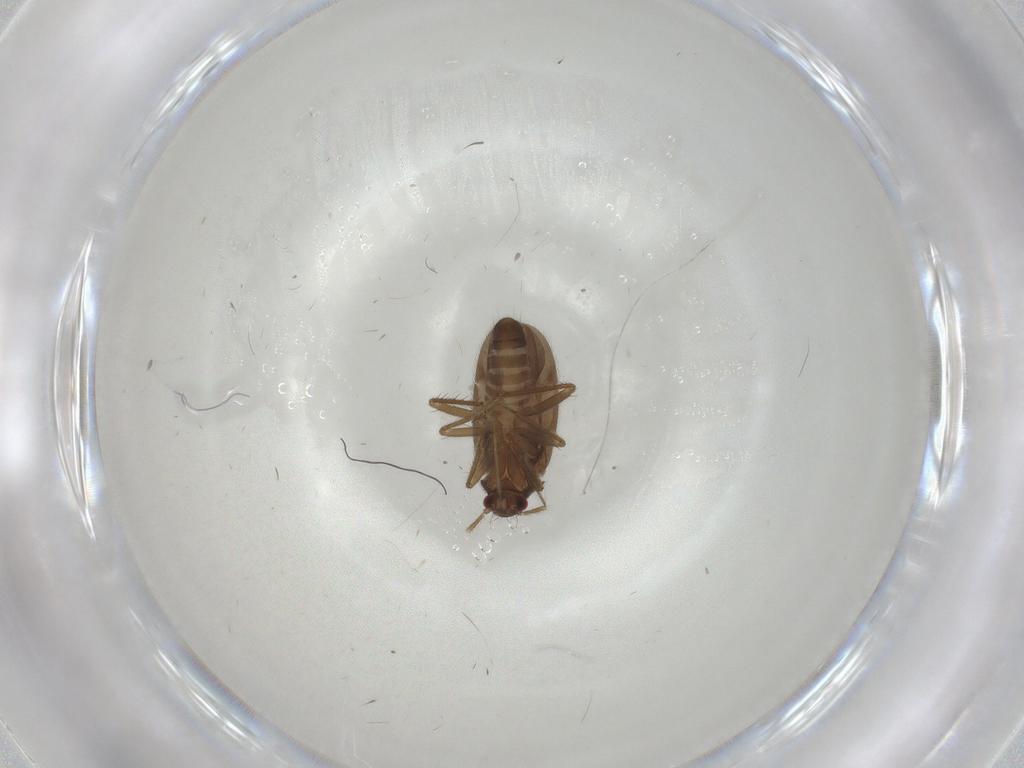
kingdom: Animalia
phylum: Arthropoda
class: Insecta
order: Hemiptera
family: Ceratocombidae
